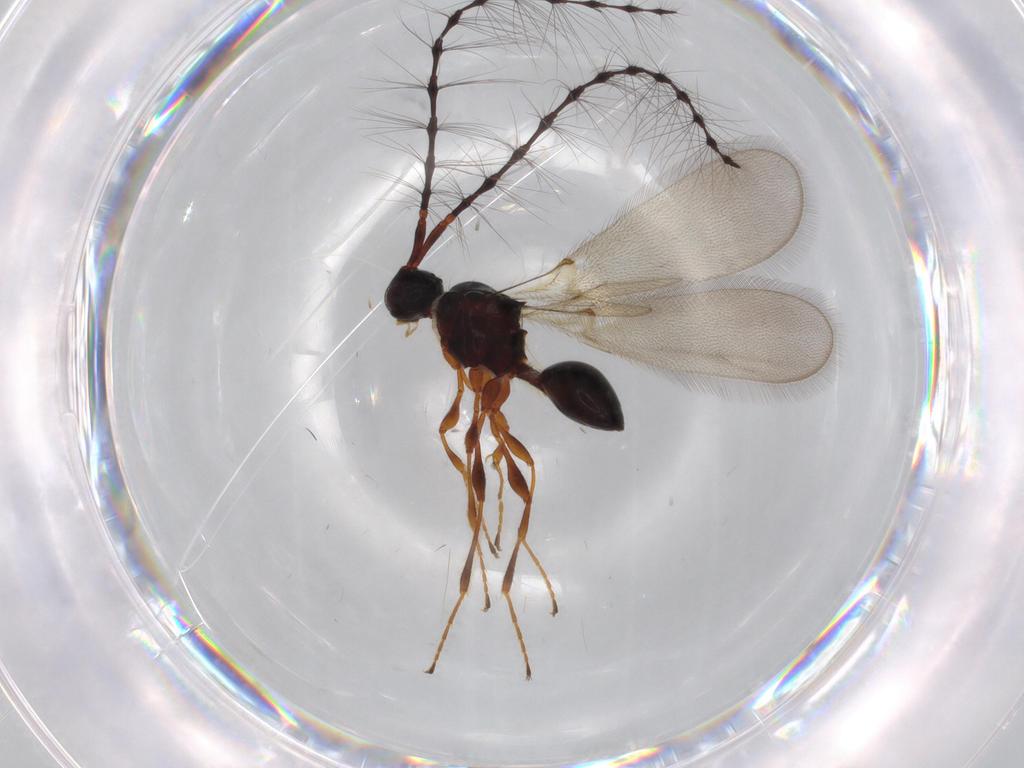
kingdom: Animalia
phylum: Arthropoda
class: Insecta
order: Hymenoptera
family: Diapriidae
